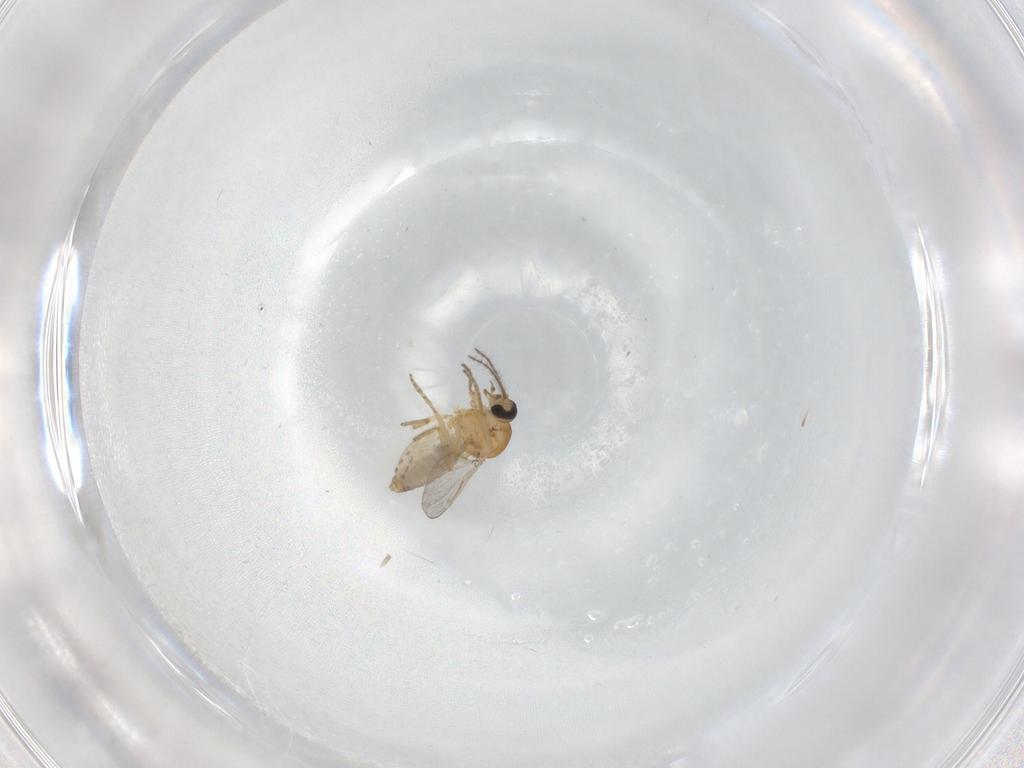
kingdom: Animalia
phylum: Arthropoda
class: Insecta
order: Diptera
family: Ceratopogonidae
